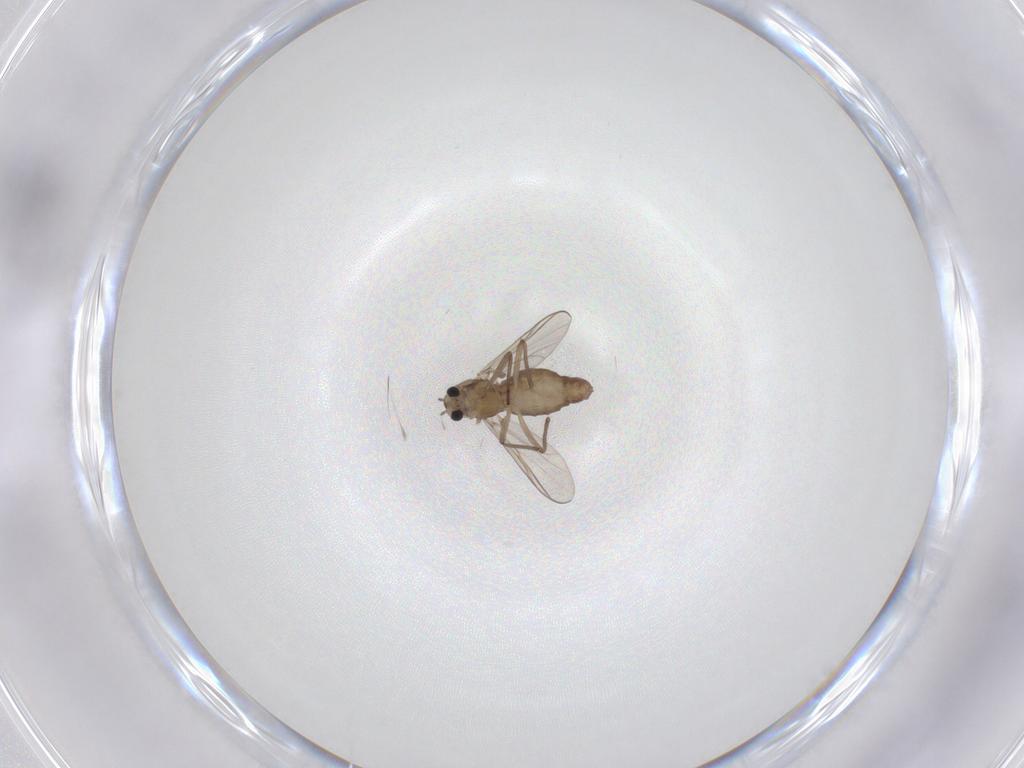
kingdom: Animalia
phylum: Arthropoda
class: Insecta
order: Diptera
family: Chironomidae
